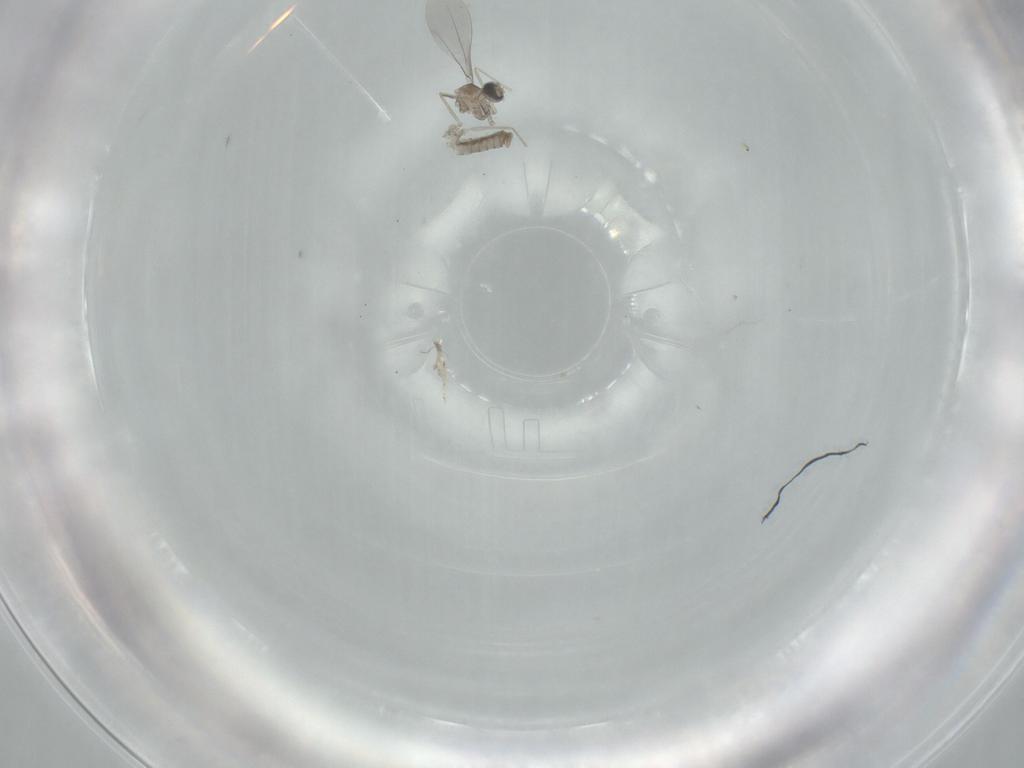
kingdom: Animalia
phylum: Arthropoda
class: Insecta
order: Diptera
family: Cecidomyiidae
